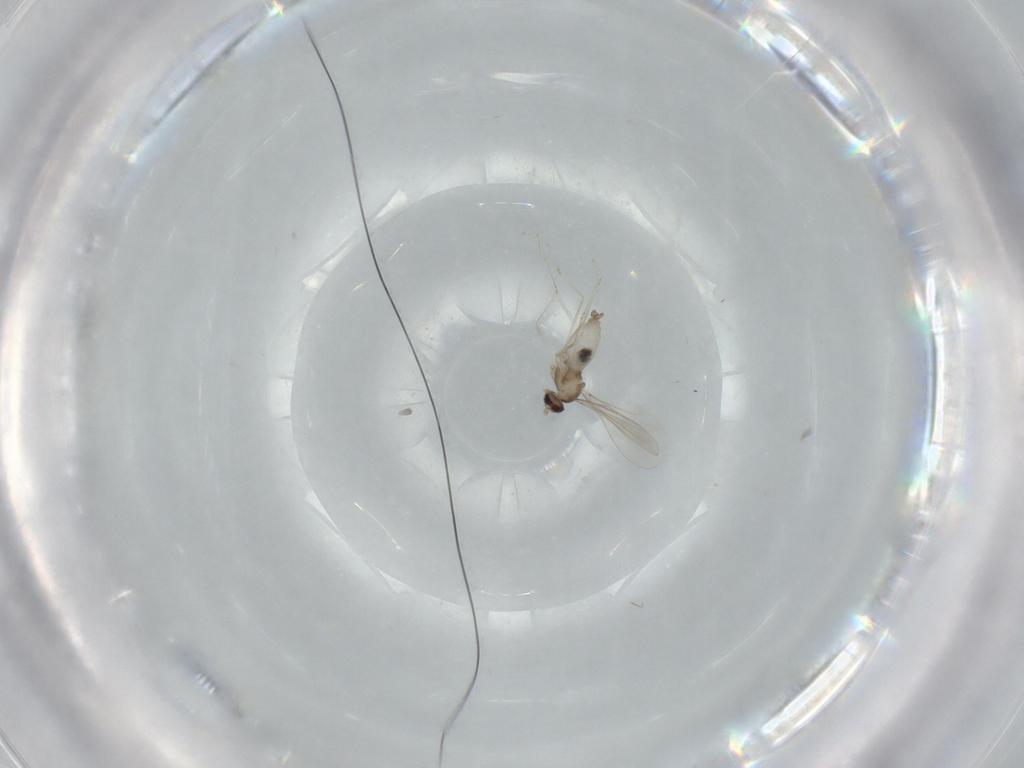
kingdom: Animalia
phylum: Arthropoda
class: Insecta
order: Diptera
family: Cecidomyiidae
